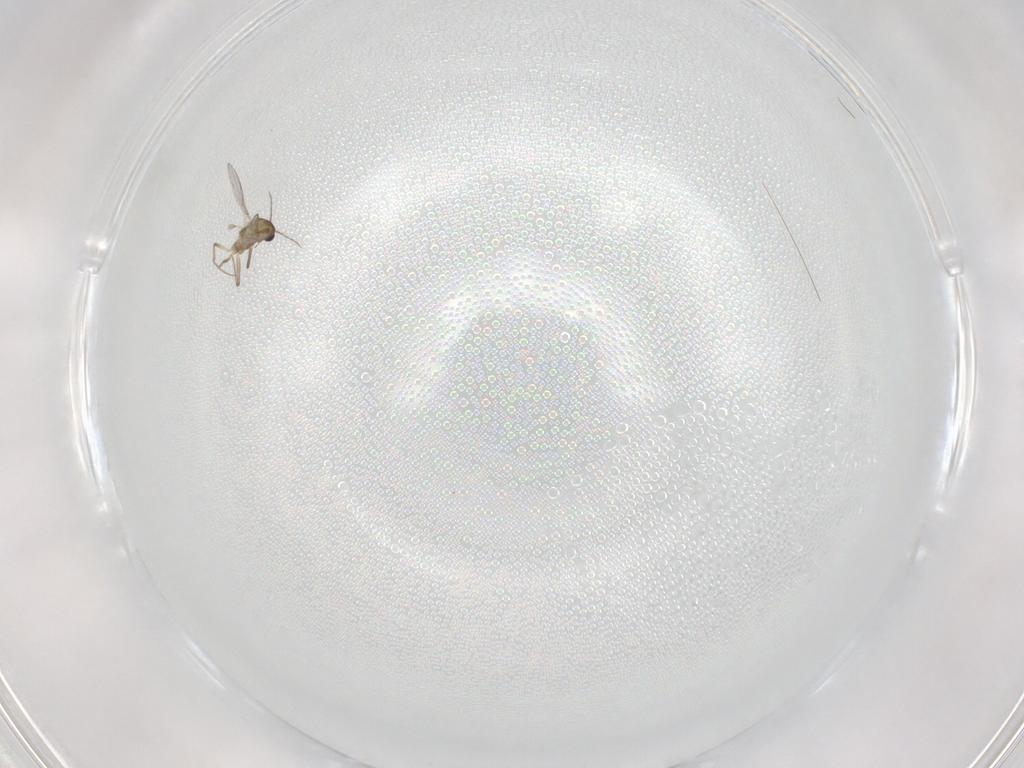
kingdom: Animalia
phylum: Arthropoda
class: Insecta
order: Diptera
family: Chironomidae
